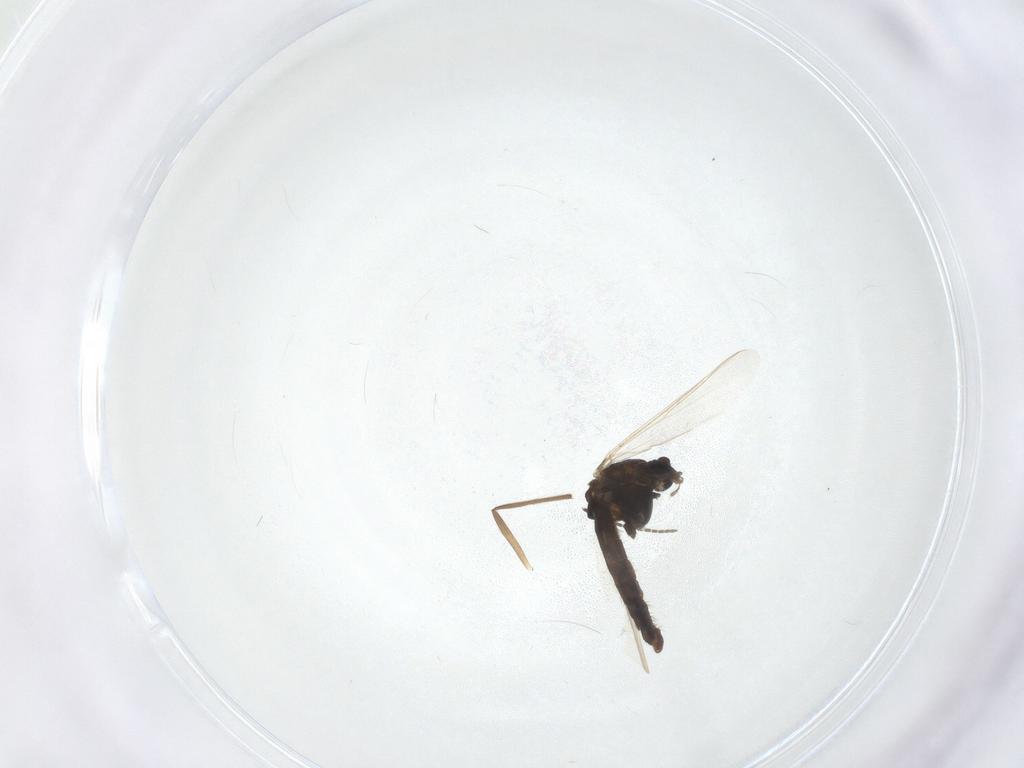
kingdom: Animalia
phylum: Arthropoda
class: Insecta
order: Diptera
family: Chironomidae
